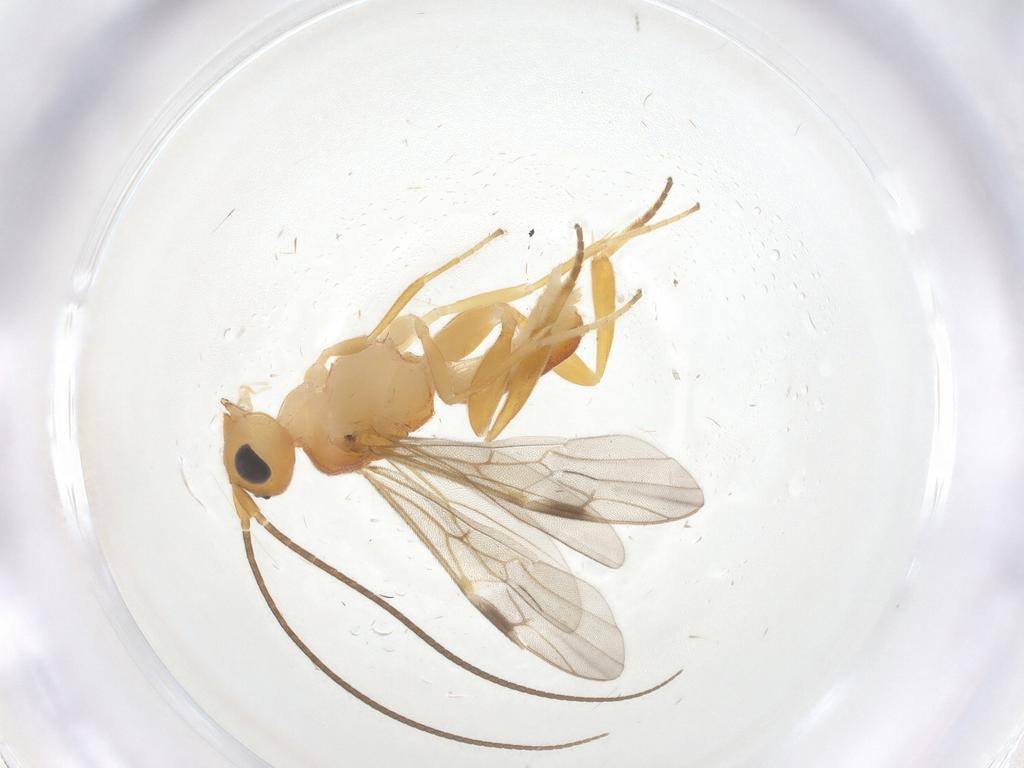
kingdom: Animalia
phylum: Arthropoda
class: Insecta
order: Hymenoptera
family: Braconidae
